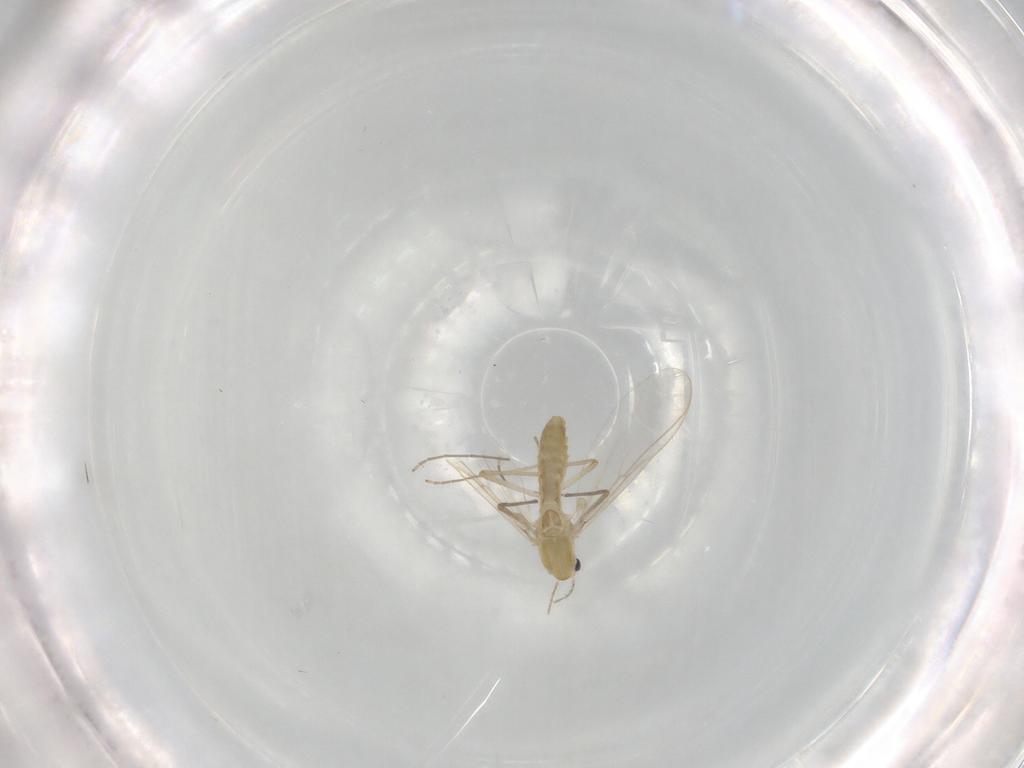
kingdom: Animalia
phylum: Arthropoda
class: Insecta
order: Diptera
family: Chironomidae
